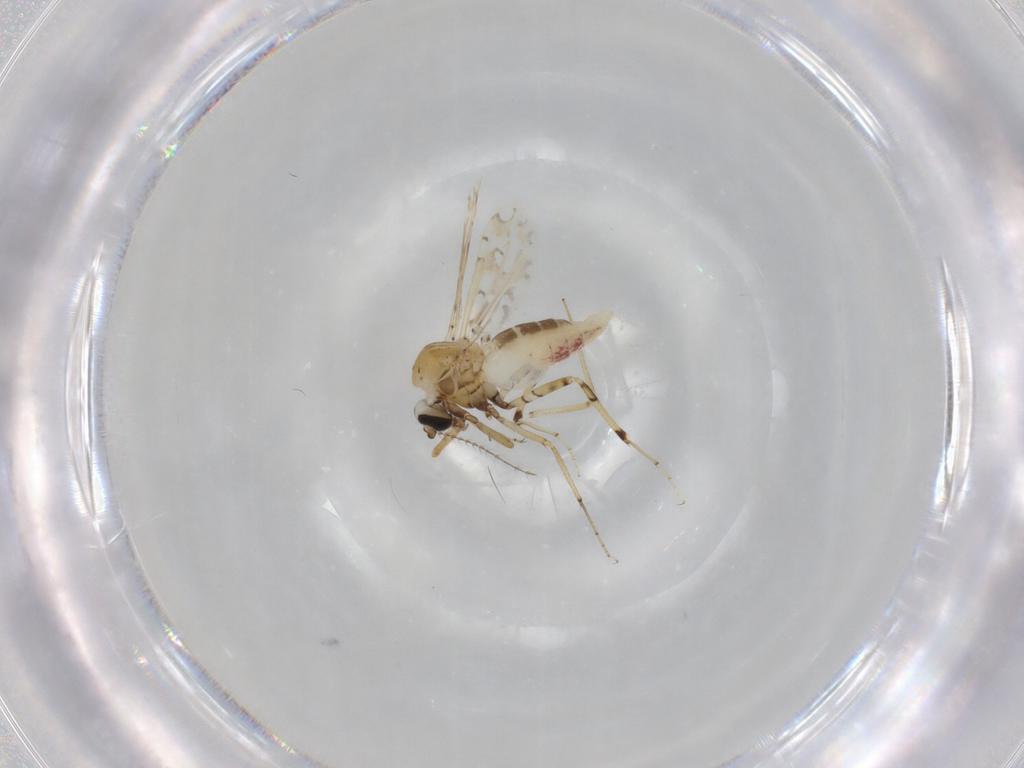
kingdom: Animalia
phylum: Arthropoda
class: Insecta
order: Diptera
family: Ceratopogonidae
